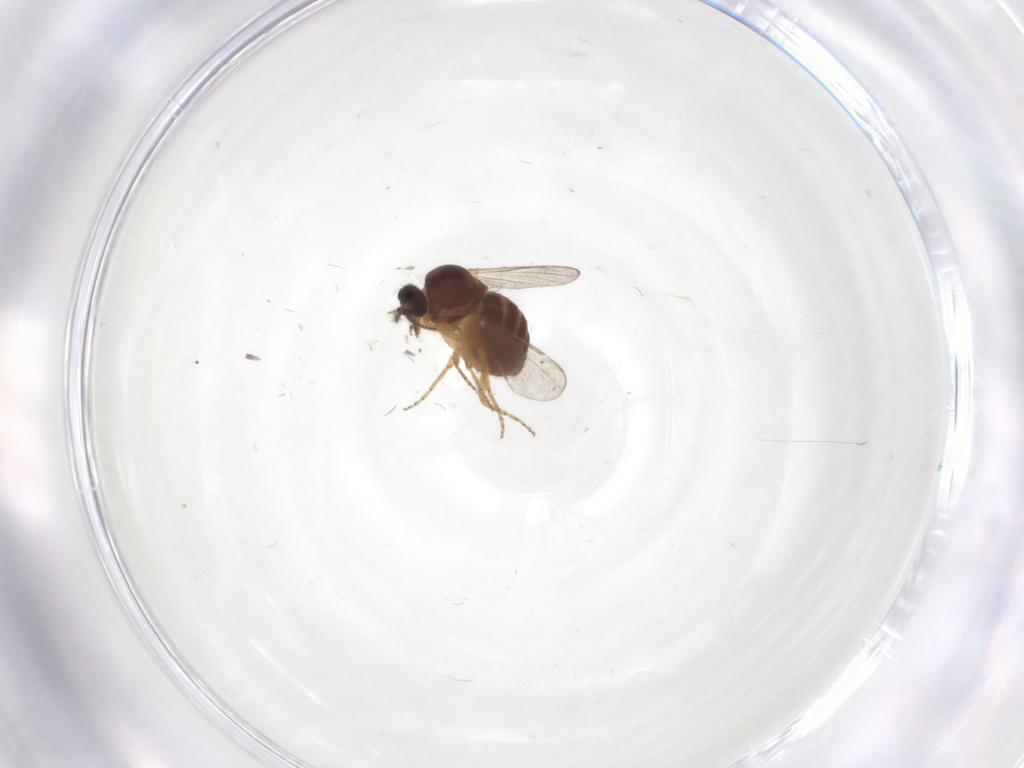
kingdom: Animalia
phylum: Arthropoda
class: Insecta
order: Diptera
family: Ceratopogonidae
